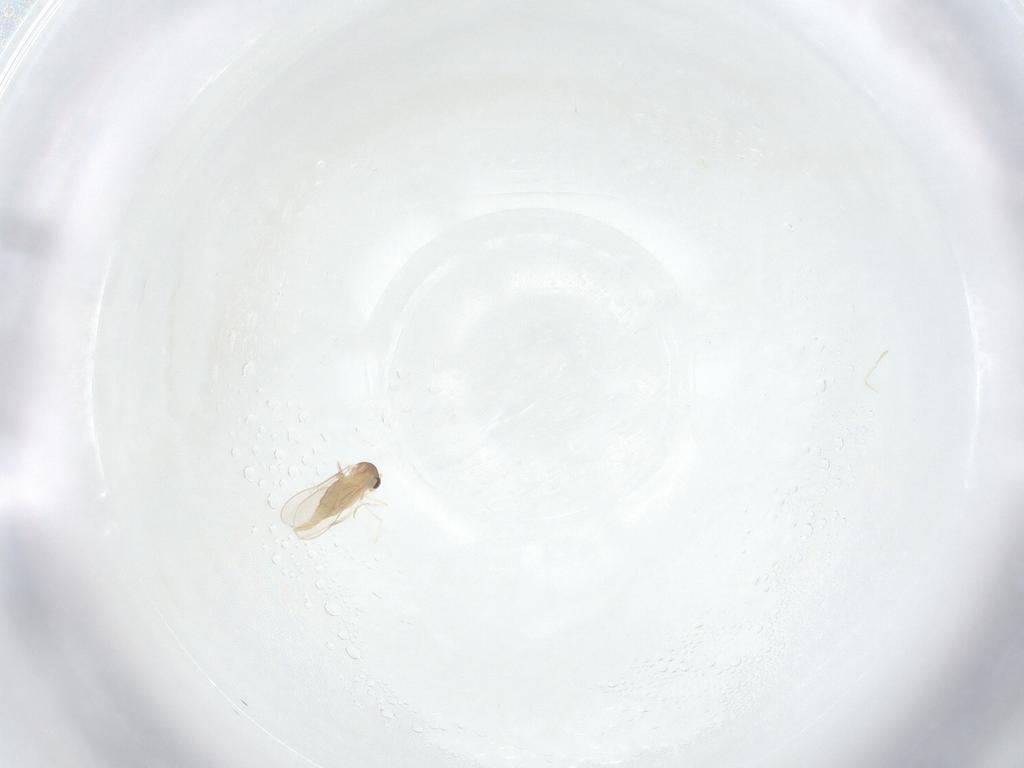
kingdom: Animalia
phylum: Arthropoda
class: Insecta
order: Diptera
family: Cecidomyiidae
